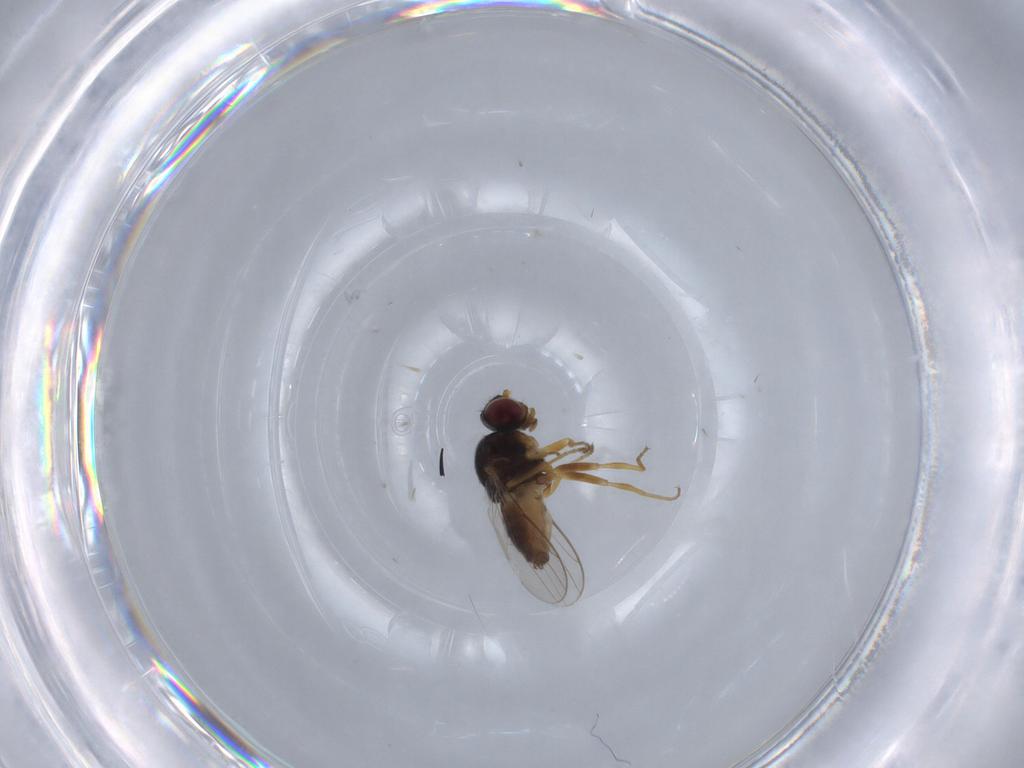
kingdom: Animalia
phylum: Arthropoda
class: Insecta
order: Diptera
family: Chloropidae
